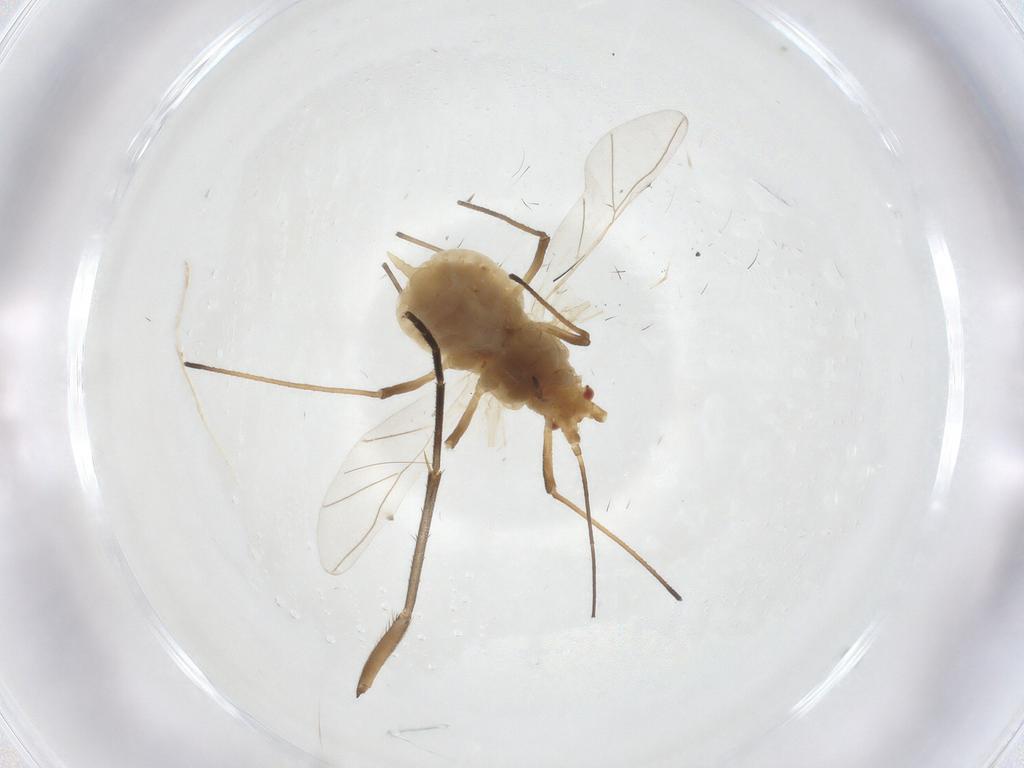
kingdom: Animalia
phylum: Arthropoda
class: Insecta
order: Hemiptera
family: Aphididae
